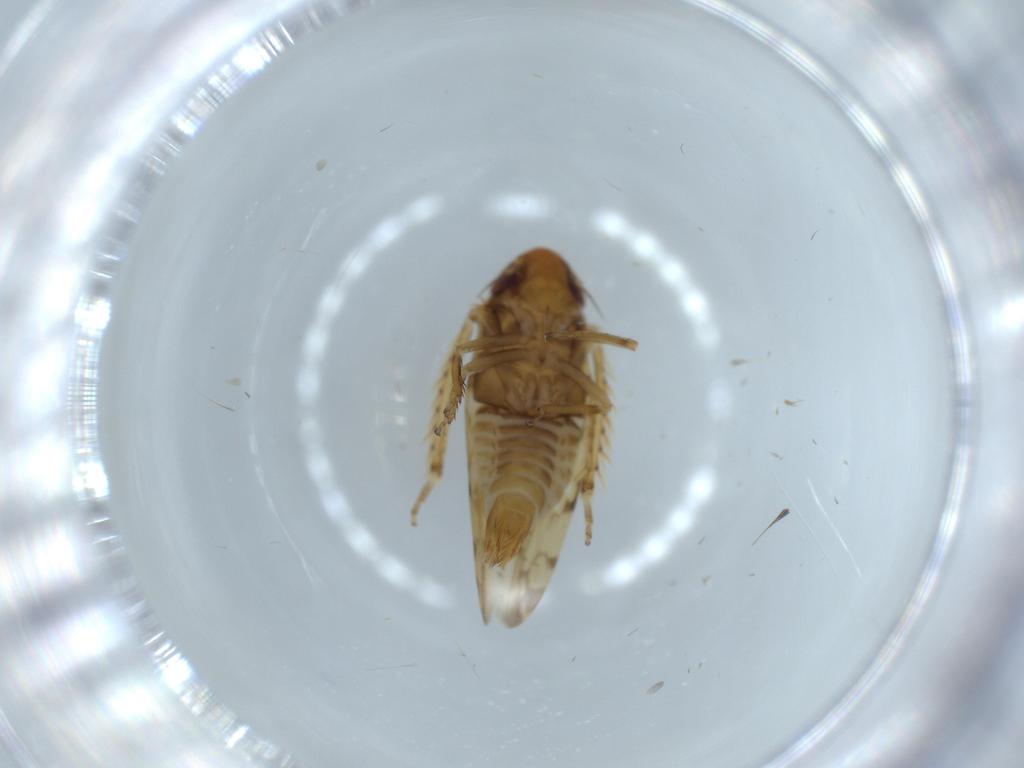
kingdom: Animalia
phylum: Arthropoda
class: Insecta
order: Hemiptera
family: Cicadellidae
